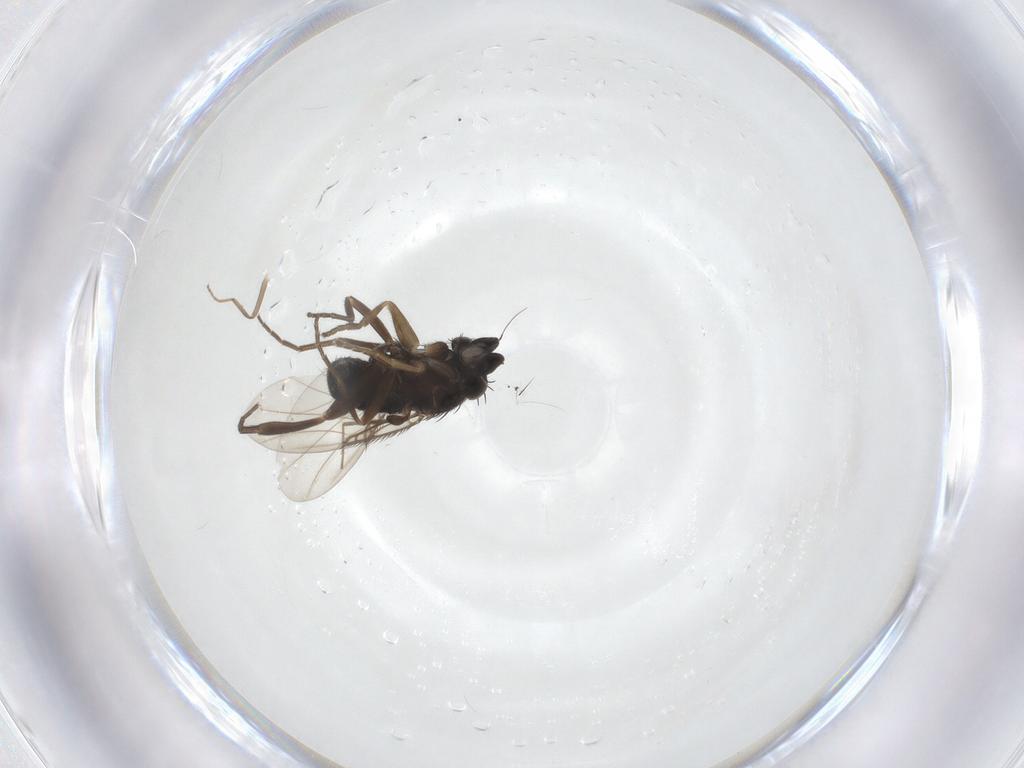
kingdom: Animalia
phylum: Arthropoda
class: Insecta
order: Diptera
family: Phoridae
